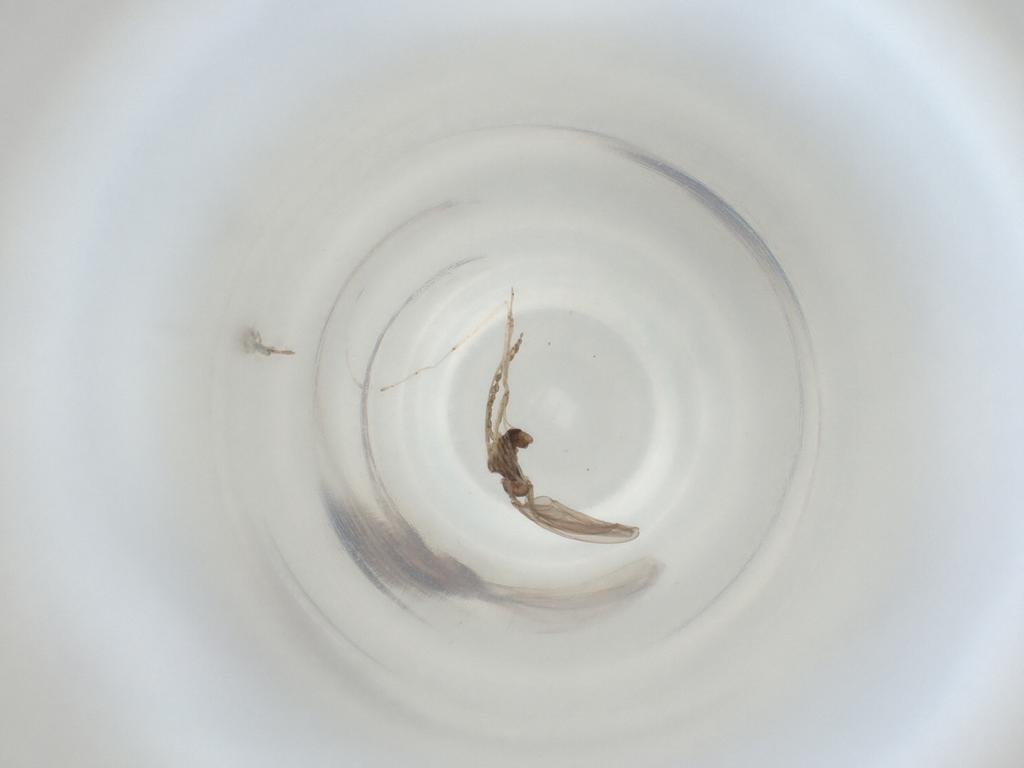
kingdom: Animalia
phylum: Arthropoda
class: Insecta
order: Diptera
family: Cecidomyiidae
